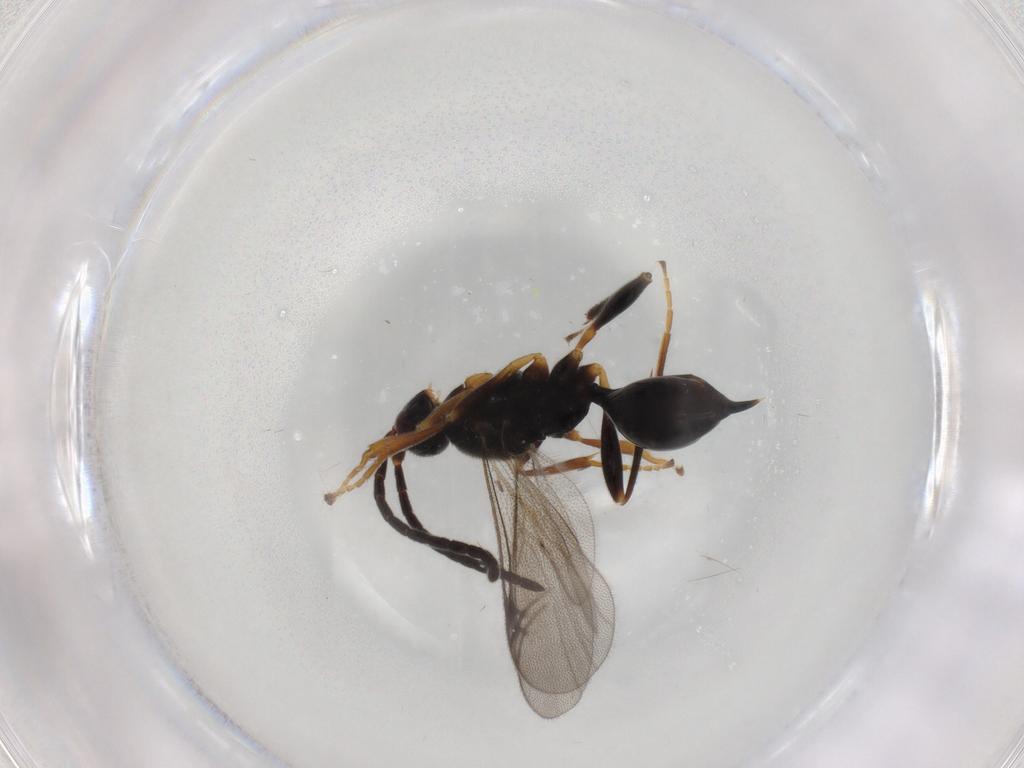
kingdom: Animalia
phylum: Arthropoda
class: Insecta
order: Hymenoptera
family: Proctotrupidae
